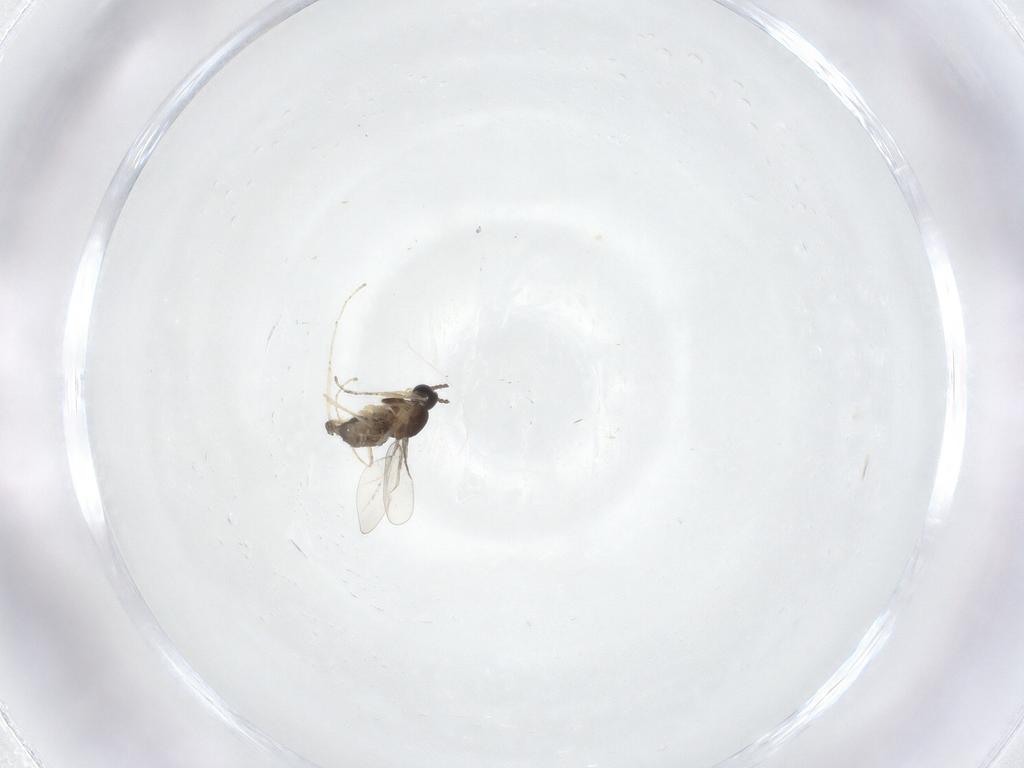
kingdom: Animalia
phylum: Arthropoda
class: Insecta
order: Diptera
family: Cecidomyiidae
